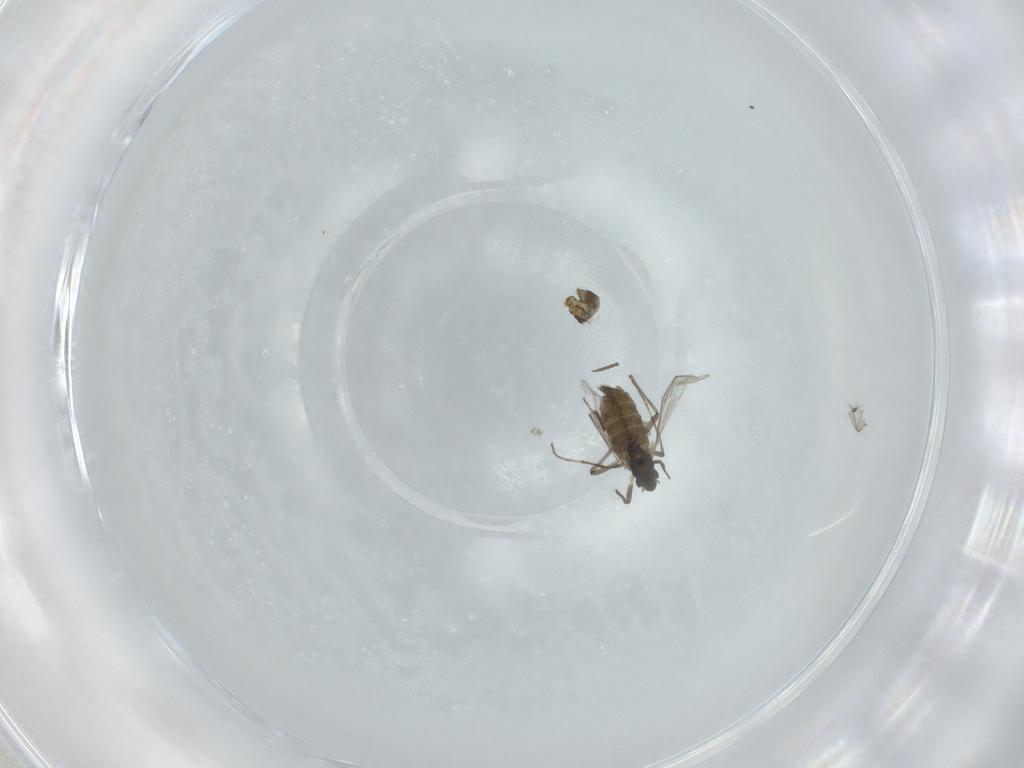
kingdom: Animalia
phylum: Arthropoda
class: Insecta
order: Diptera
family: Chironomidae
